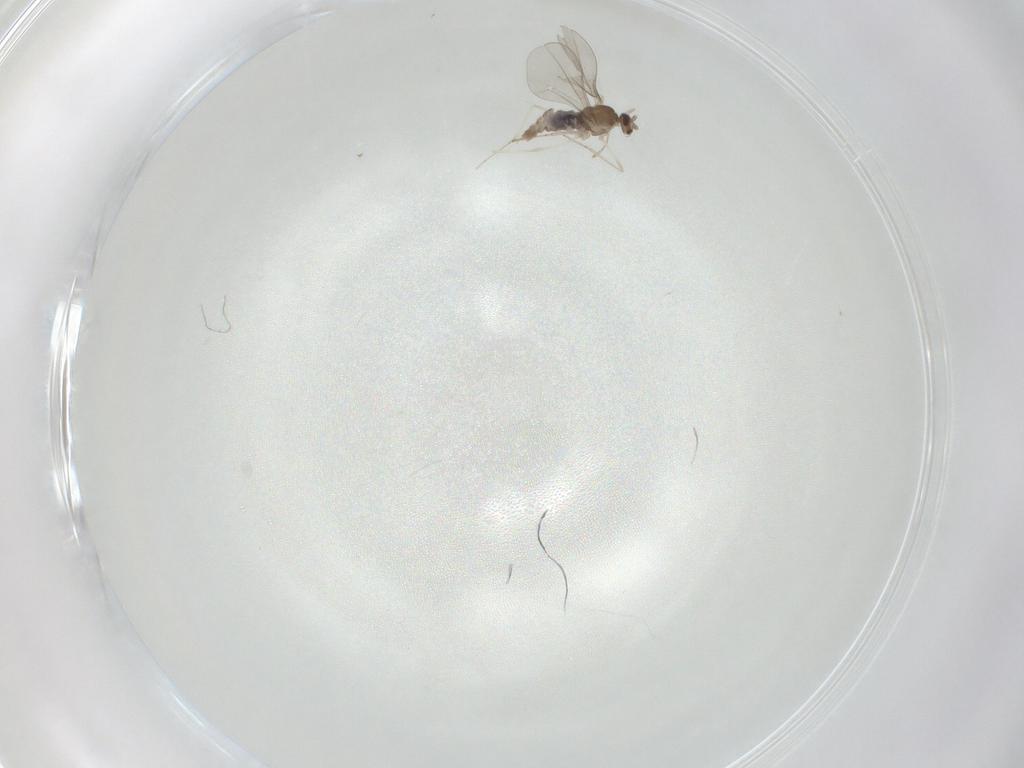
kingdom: Animalia
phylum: Arthropoda
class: Insecta
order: Diptera
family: Cecidomyiidae
